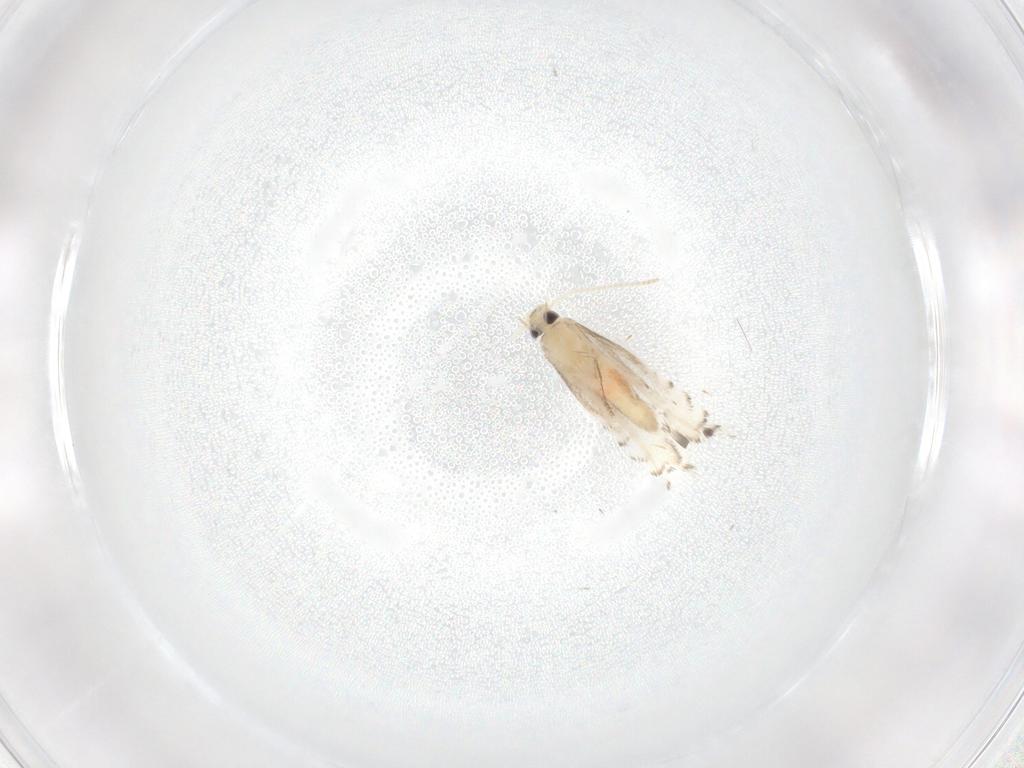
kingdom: Animalia
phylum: Arthropoda
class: Insecta
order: Lepidoptera
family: Gracillariidae
